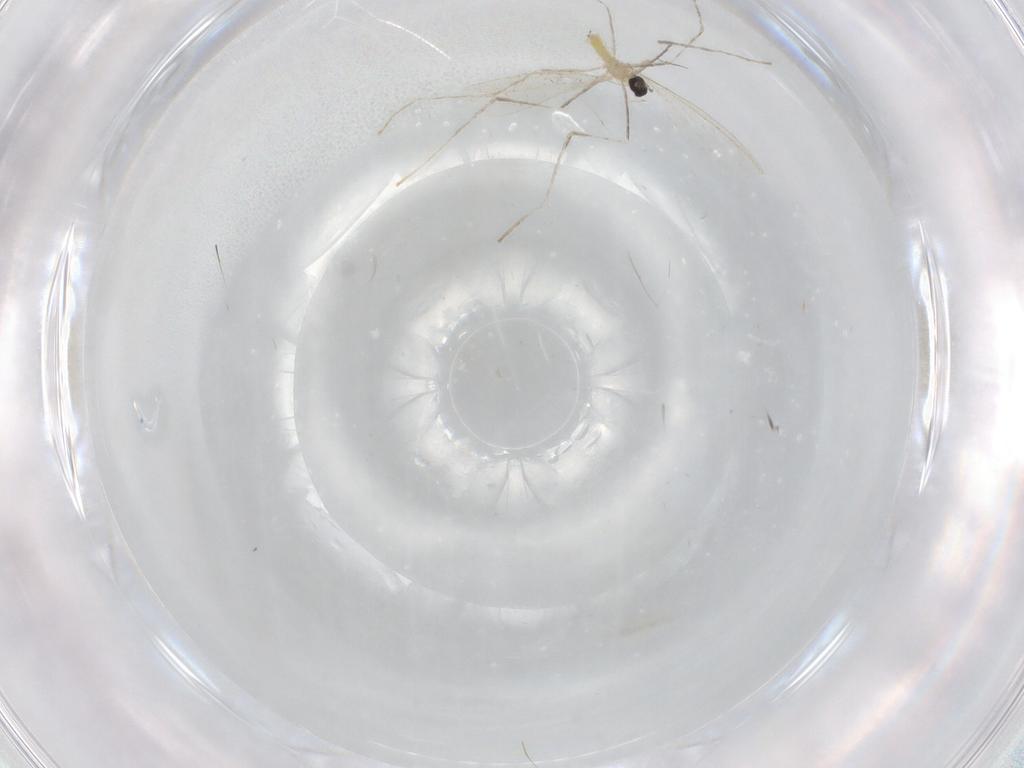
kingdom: Animalia
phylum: Arthropoda
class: Insecta
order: Diptera
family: Cecidomyiidae
